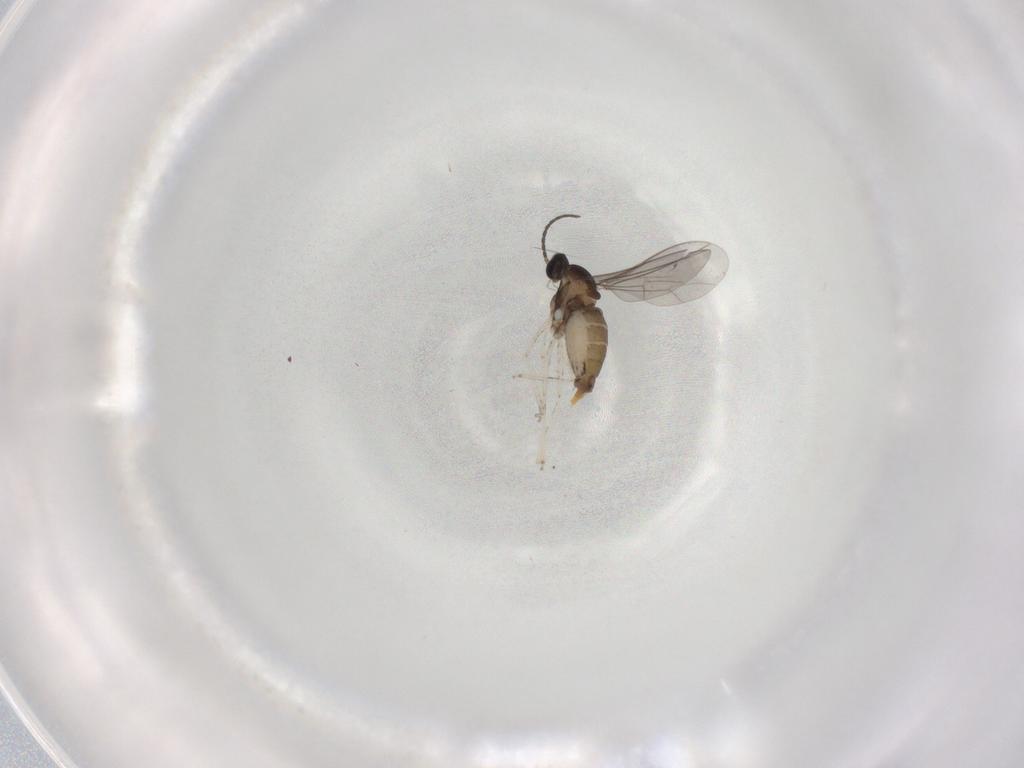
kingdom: Animalia
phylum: Arthropoda
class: Insecta
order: Diptera
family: Cecidomyiidae
